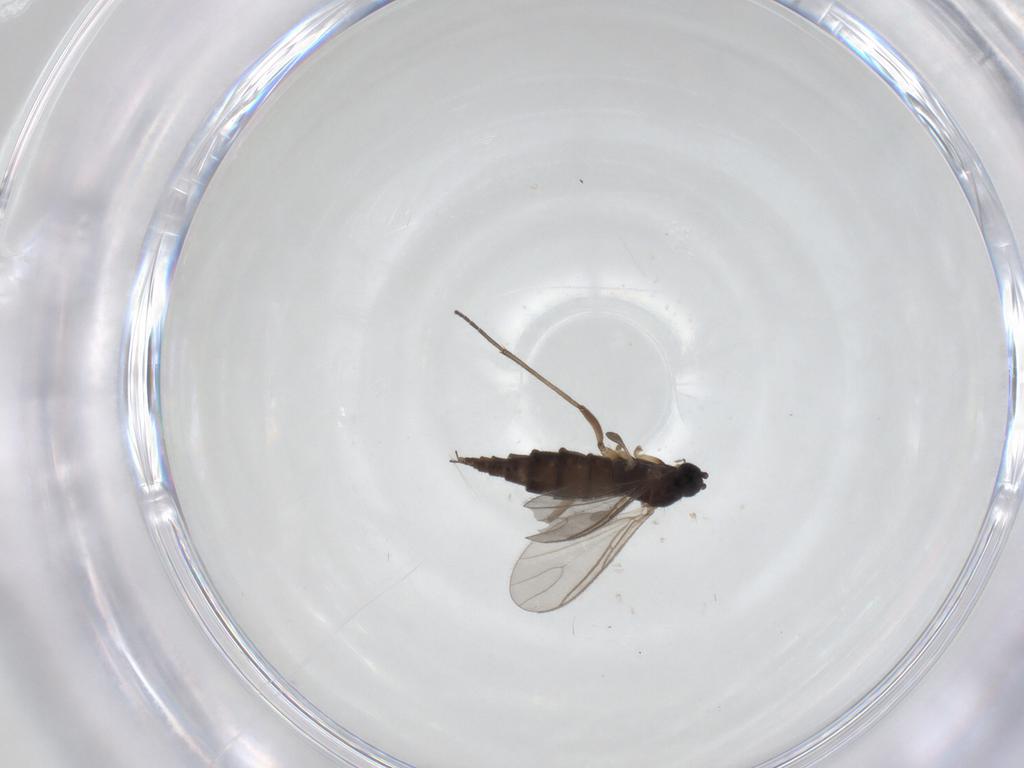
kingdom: Animalia
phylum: Arthropoda
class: Insecta
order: Diptera
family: Sciaridae
